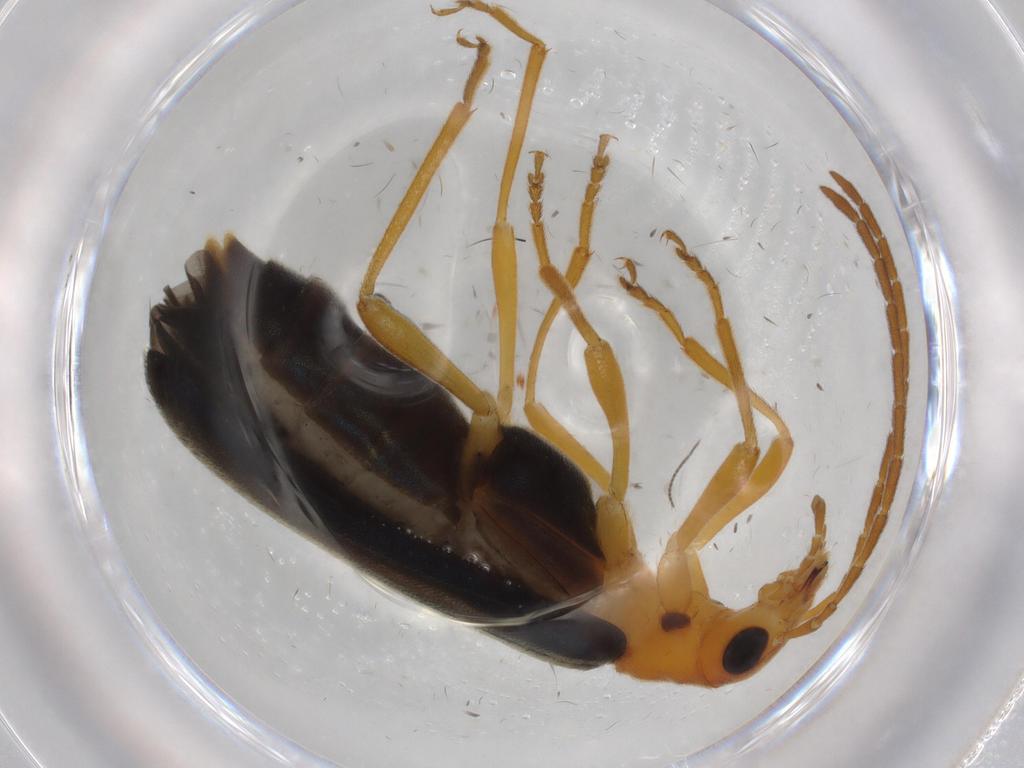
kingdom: Animalia
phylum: Arthropoda
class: Insecta
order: Coleoptera
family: Oedemeridae
